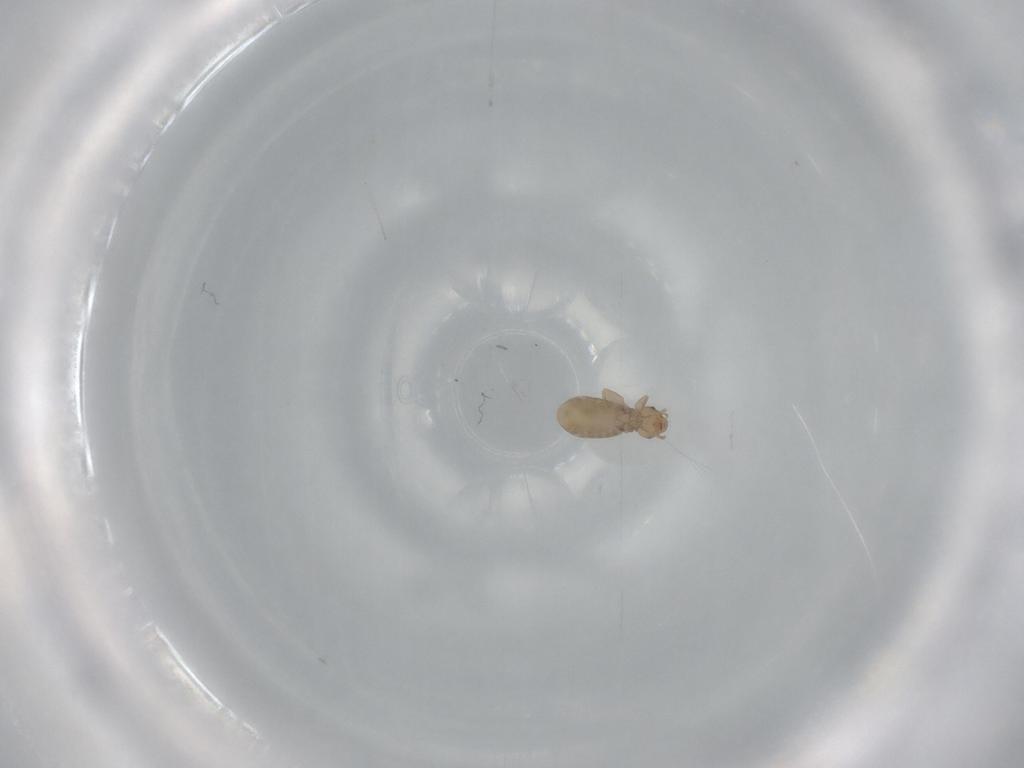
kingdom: Animalia
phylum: Arthropoda
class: Insecta
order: Psocodea
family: Liposcelididae
